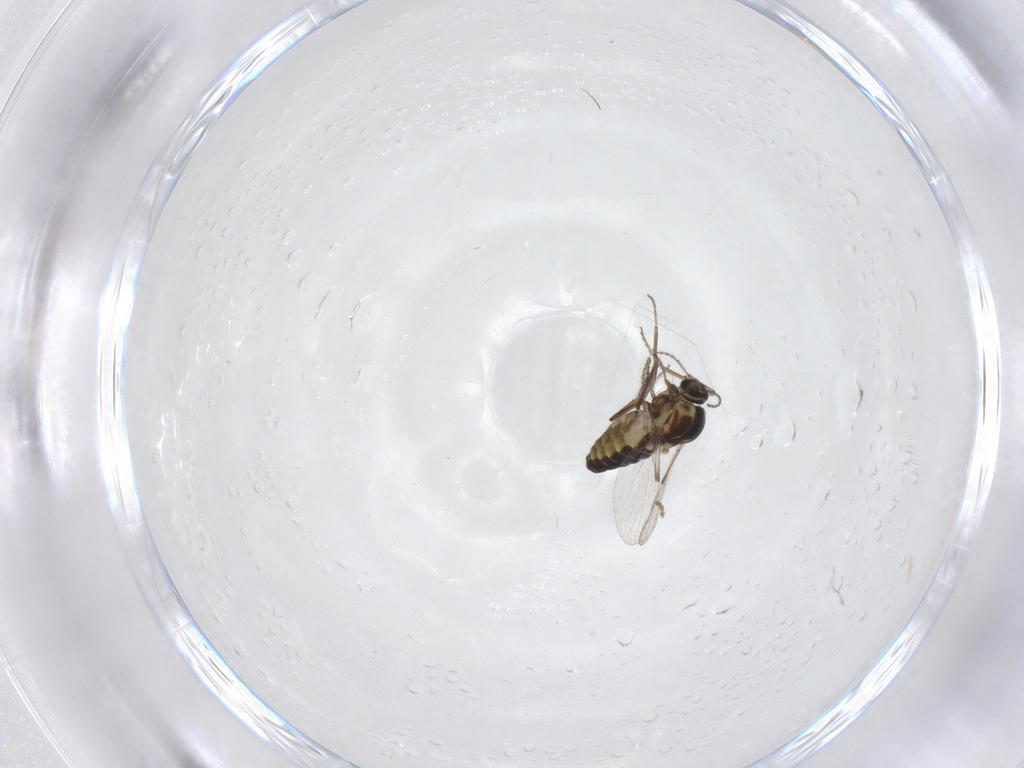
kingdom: Animalia
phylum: Arthropoda
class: Insecta
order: Diptera
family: Ceratopogonidae
